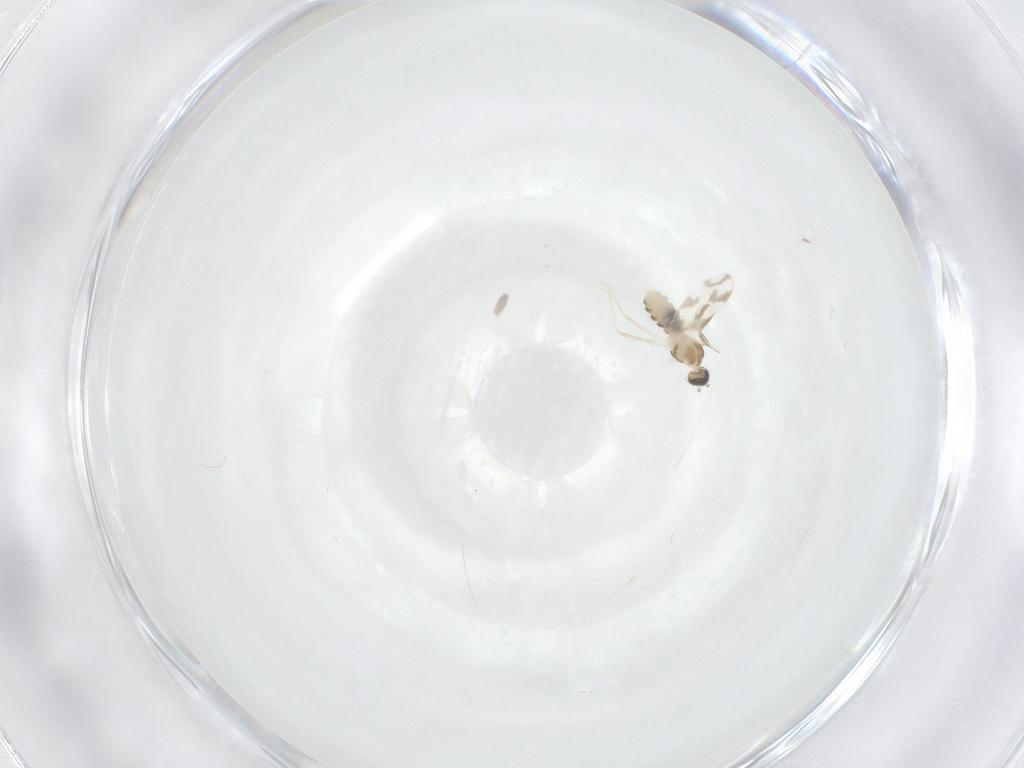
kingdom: Animalia
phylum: Arthropoda
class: Insecta
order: Diptera
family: Cecidomyiidae
